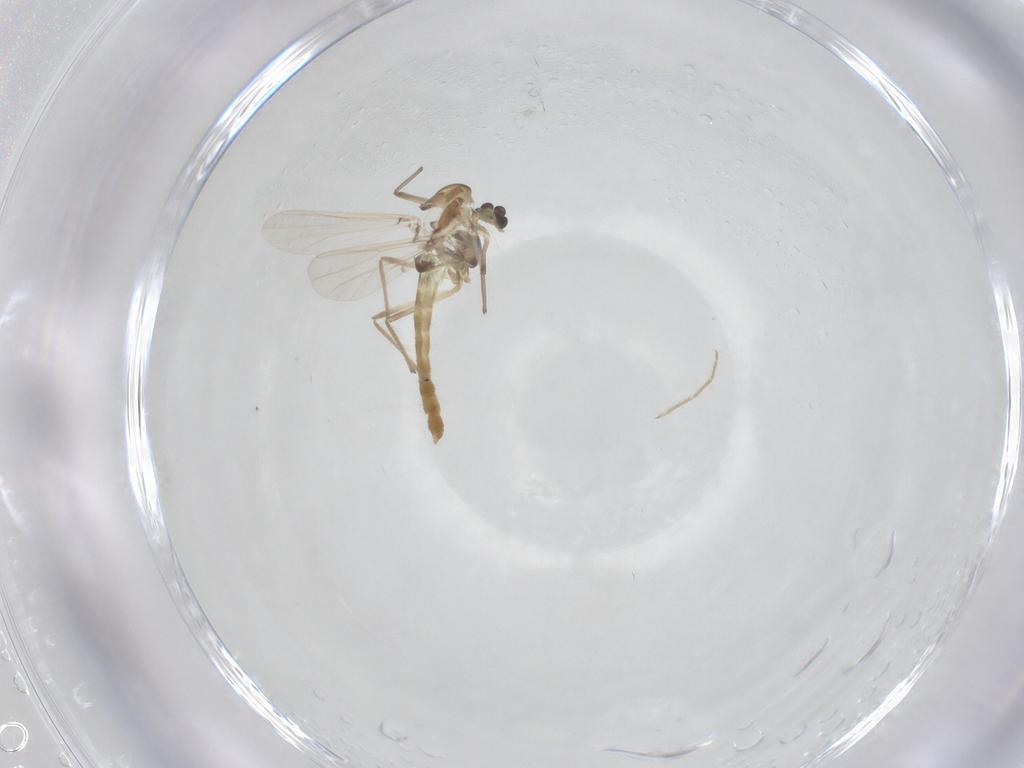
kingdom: Animalia
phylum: Arthropoda
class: Insecta
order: Diptera
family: Chironomidae
